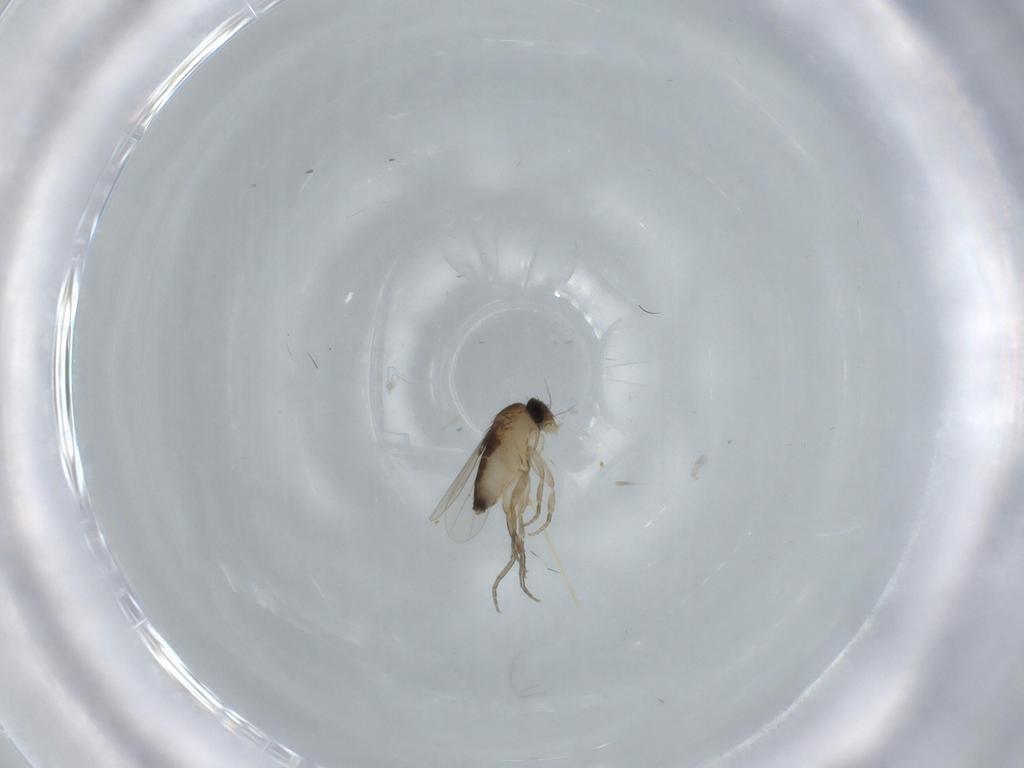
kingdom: Animalia
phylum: Arthropoda
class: Insecta
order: Diptera
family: Phoridae
